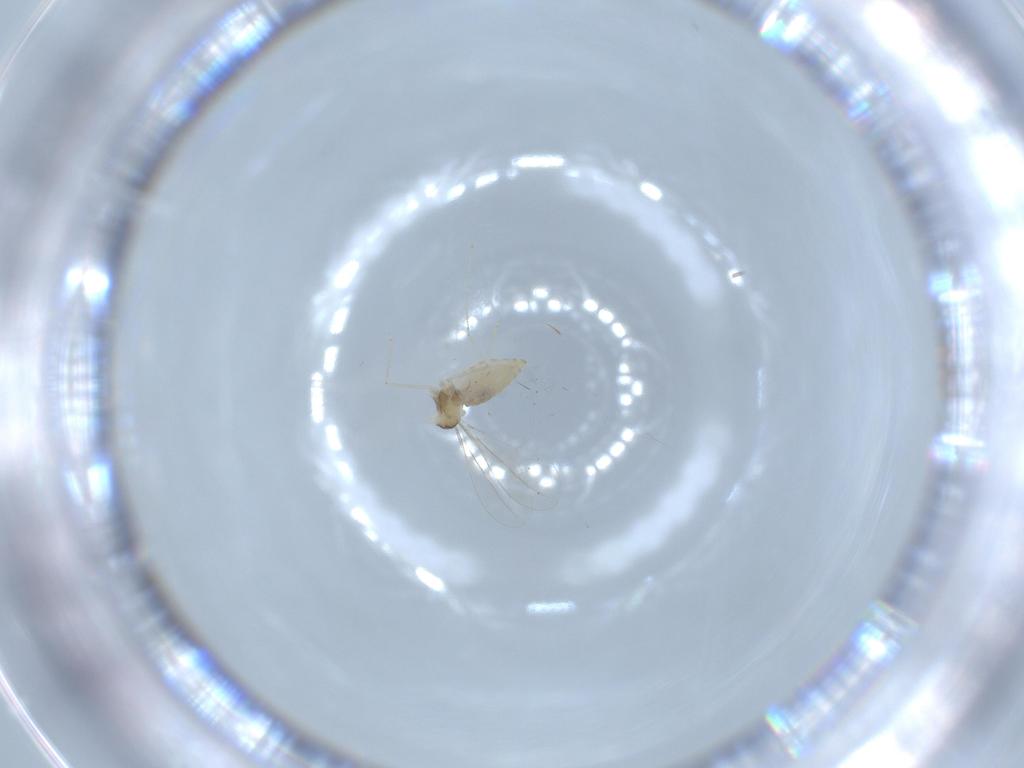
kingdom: Animalia
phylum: Arthropoda
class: Insecta
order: Diptera
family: Cecidomyiidae
